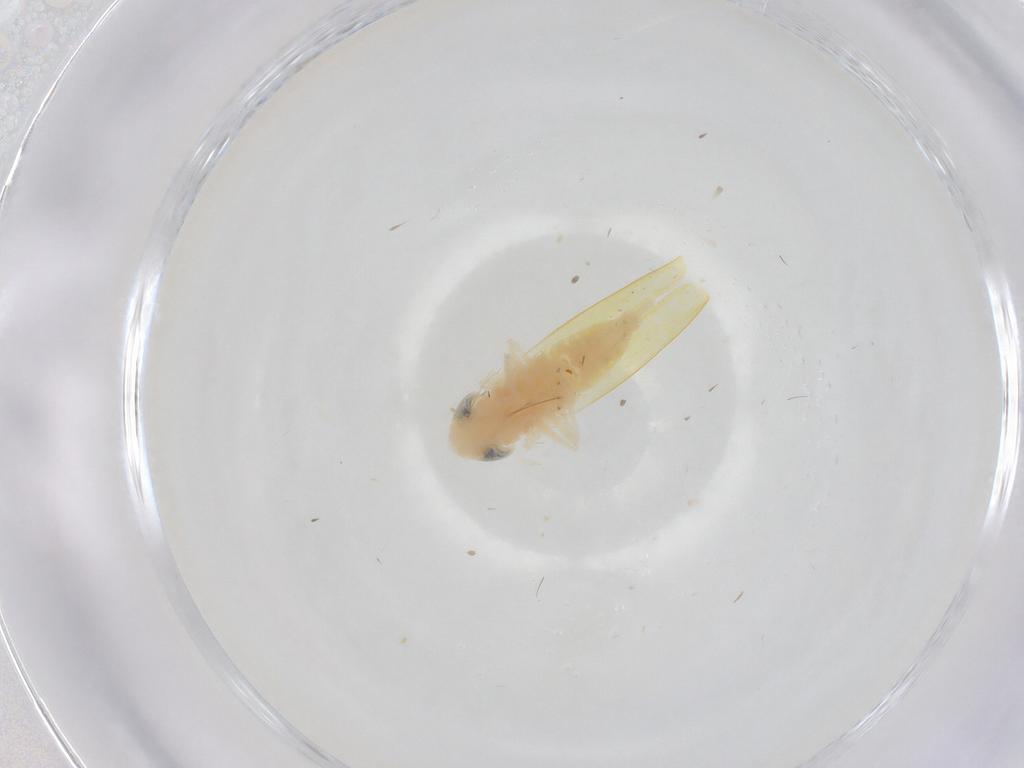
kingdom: Animalia
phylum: Arthropoda
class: Insecta
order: Hemiptera
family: Cicadellidae
